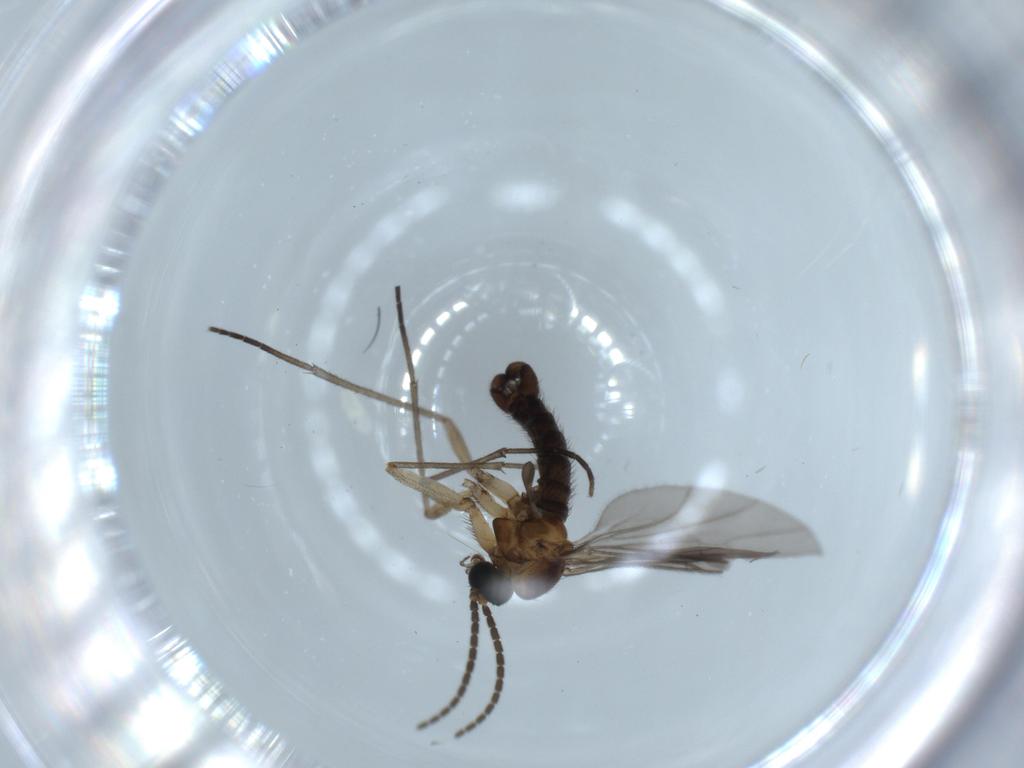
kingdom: Animalia
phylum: Arthropoda
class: Insecta
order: Diptera
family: Sciaridae
